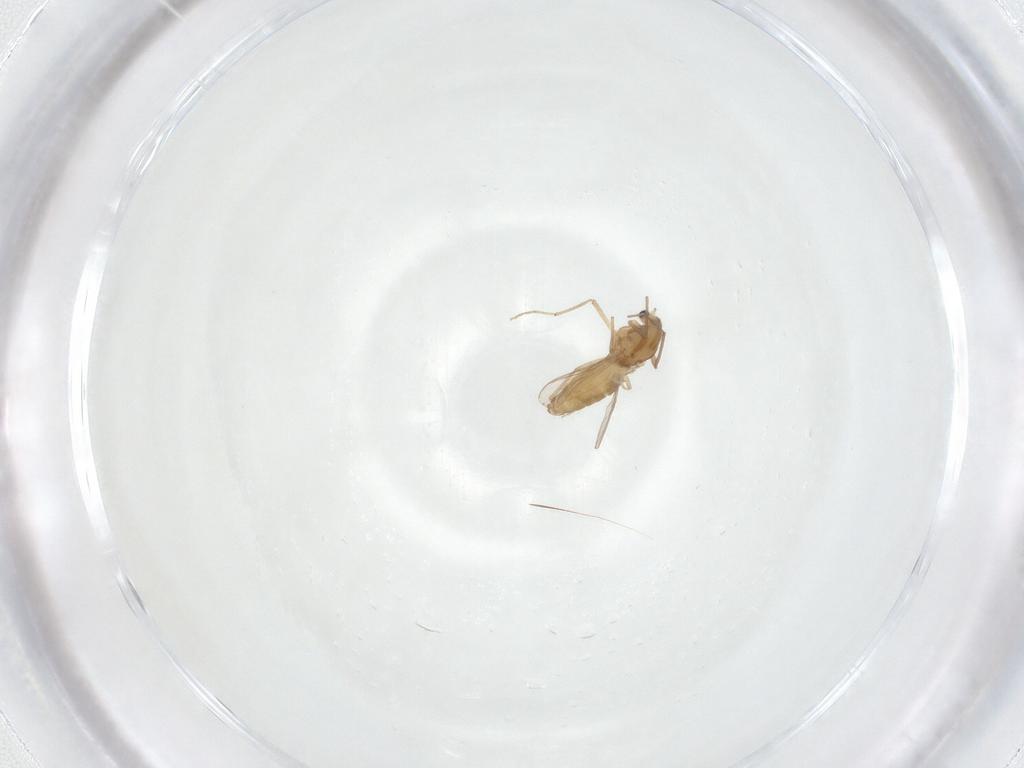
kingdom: Animalia
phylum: Arthropoda
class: Insecta
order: Diptera
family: Chironomidae
